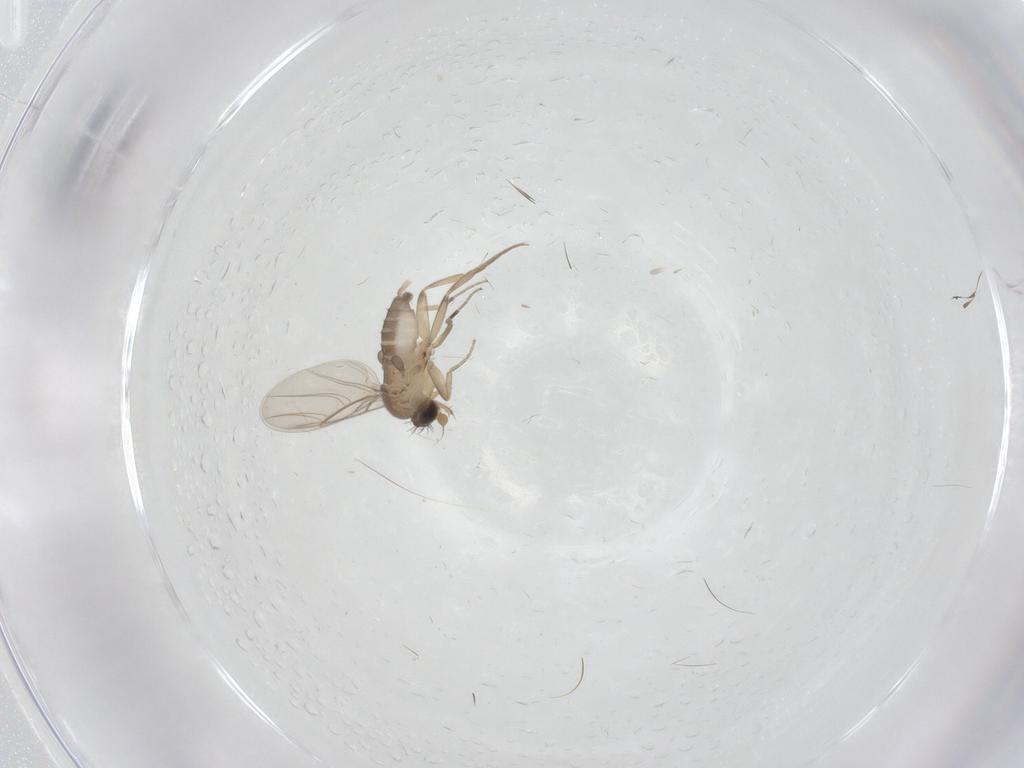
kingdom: Animalia
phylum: Arthropoda
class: Insecta
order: Diptera
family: Phoridae
